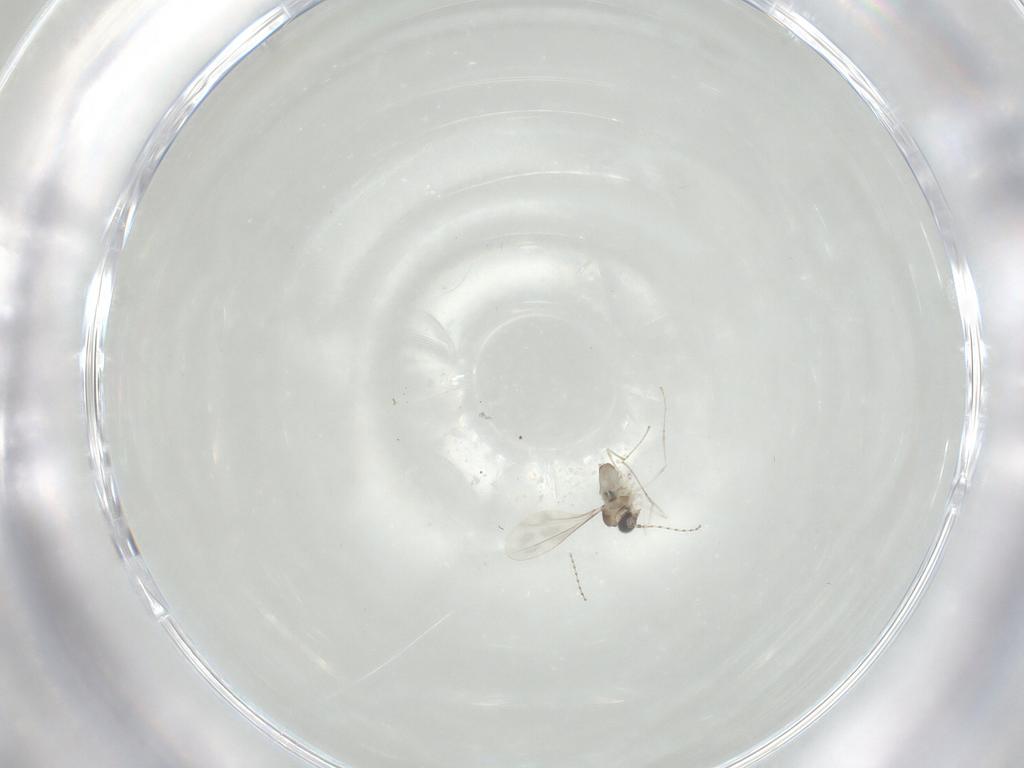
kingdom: Animalia
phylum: Arthropoda
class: Insecta
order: Diptera
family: Cecidomyiidae
